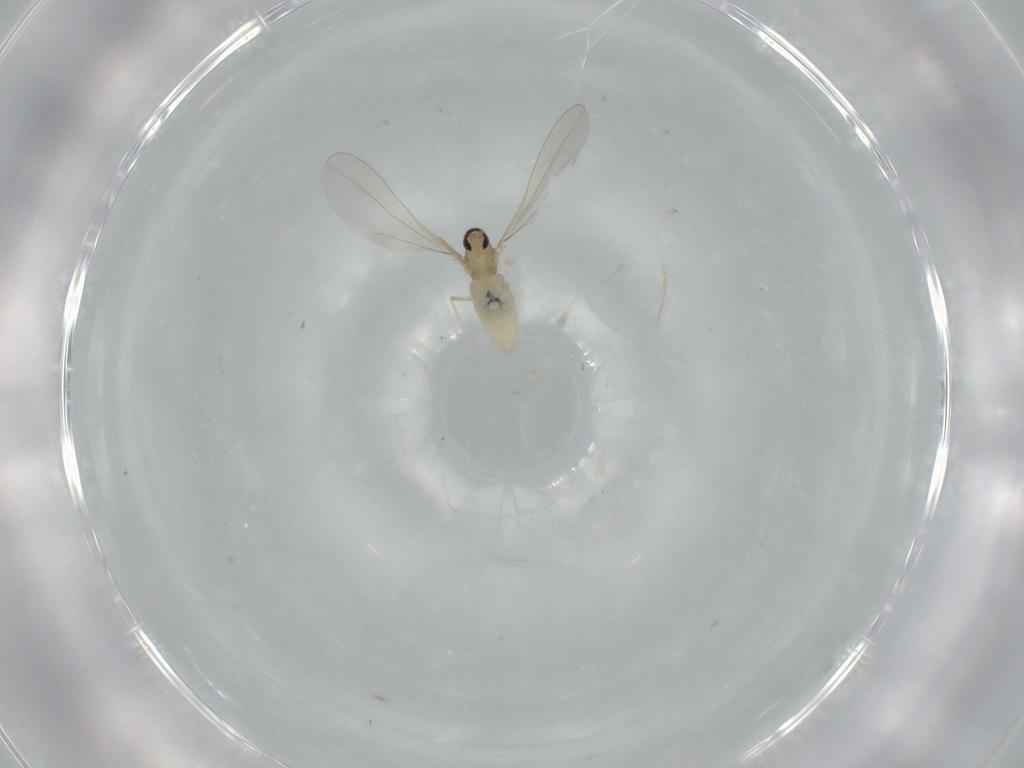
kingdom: Animalia
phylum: Arthropoda
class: Insecta
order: Diptera
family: Cecidomyiidae
